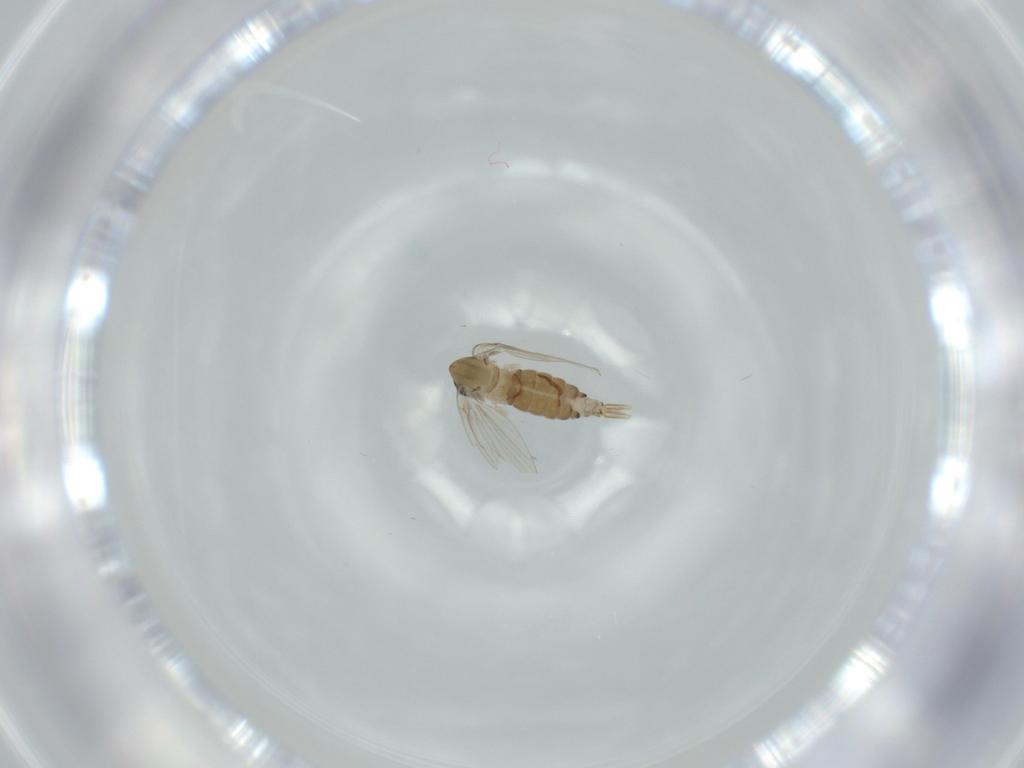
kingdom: Animalia
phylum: Arthropoda
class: Insecta
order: Diptera
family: Psychodidae
